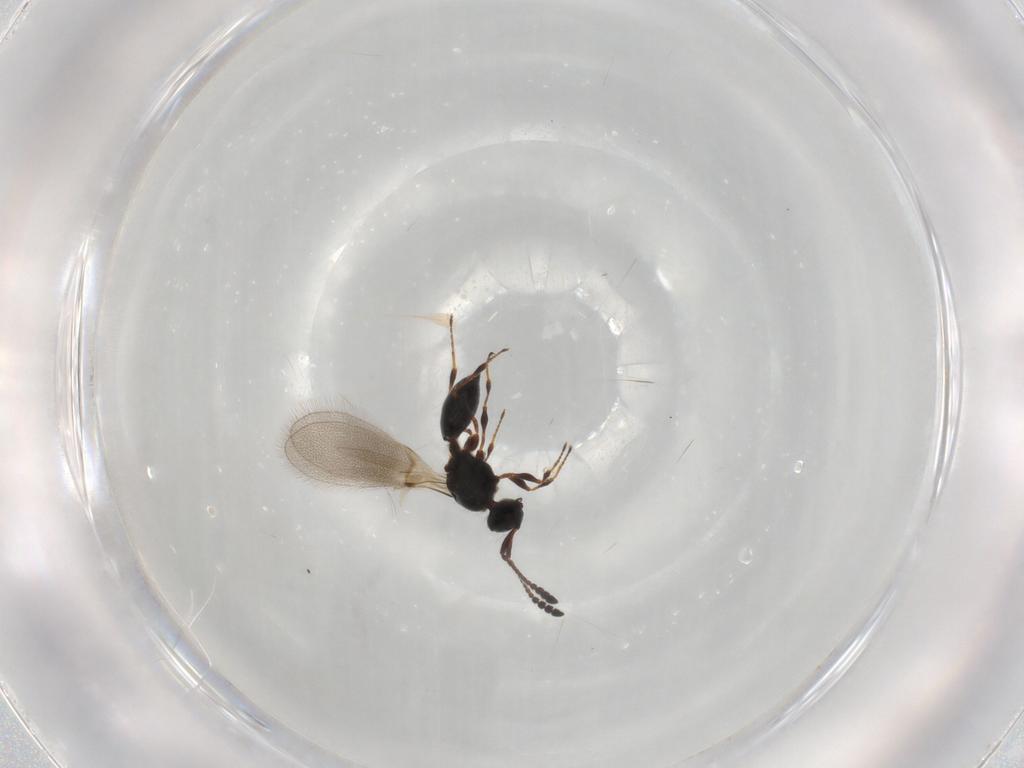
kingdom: Animalia
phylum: Arthropoda
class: Insecta
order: Hymenoptera
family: Diapriidae
